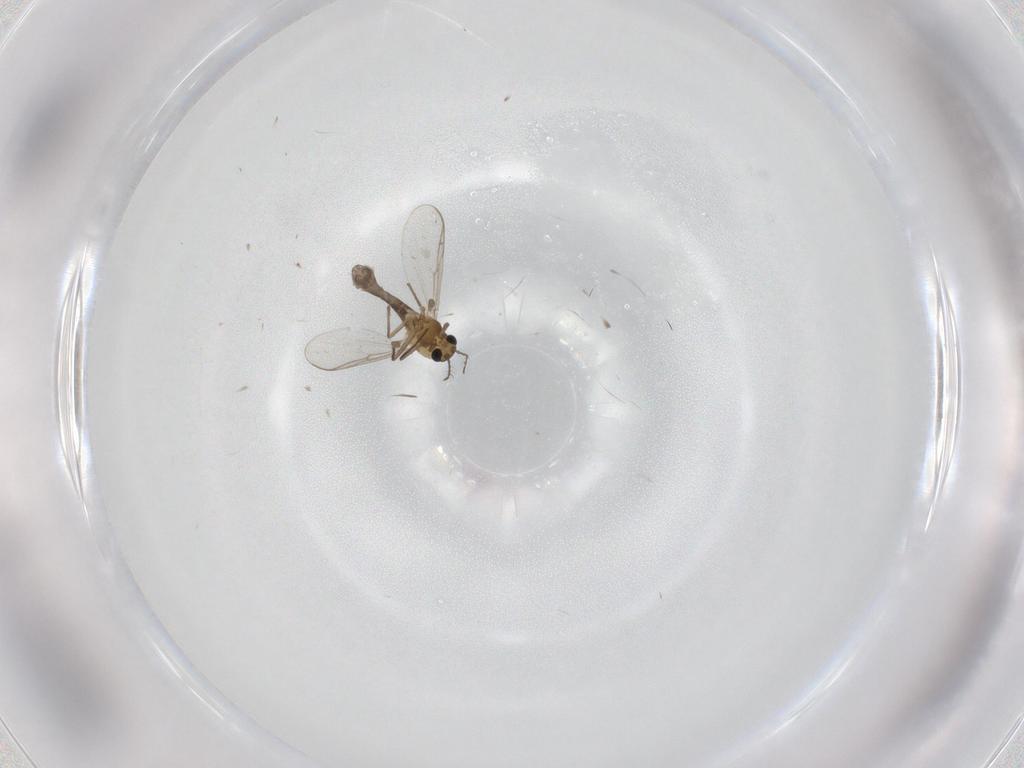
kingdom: Animalia
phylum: Arthropoda
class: Insecta
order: Diptera
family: Chironomidae
